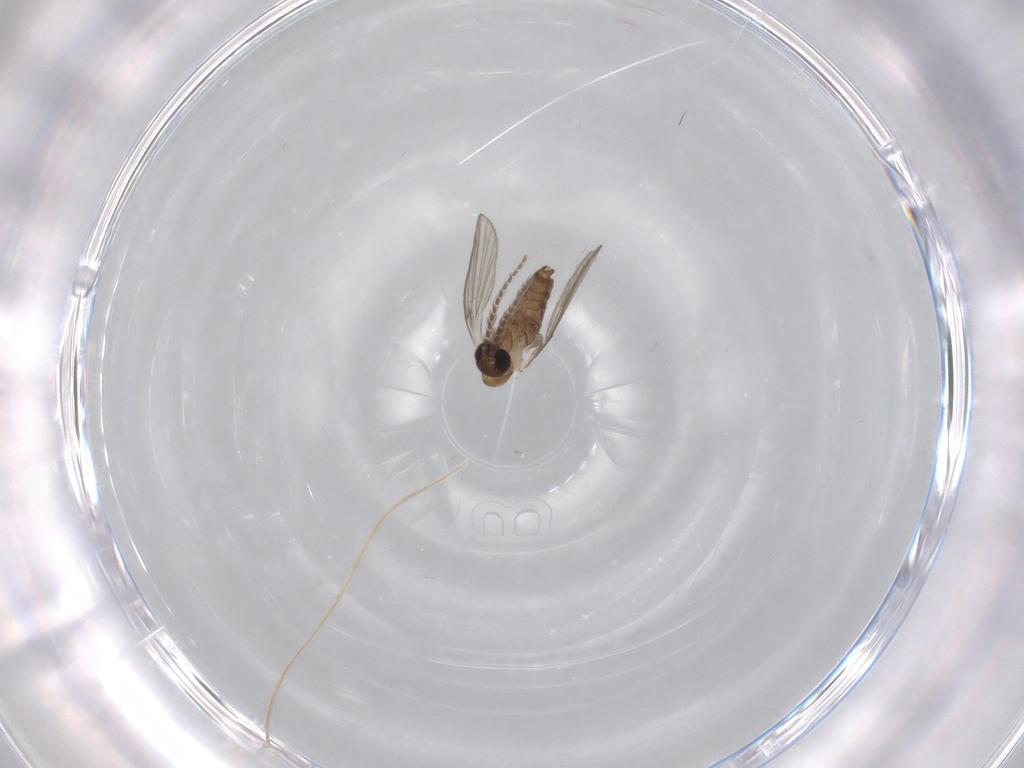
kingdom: Animalia
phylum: Arthropoda
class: Insecta
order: Diptera
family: Psychodidae
